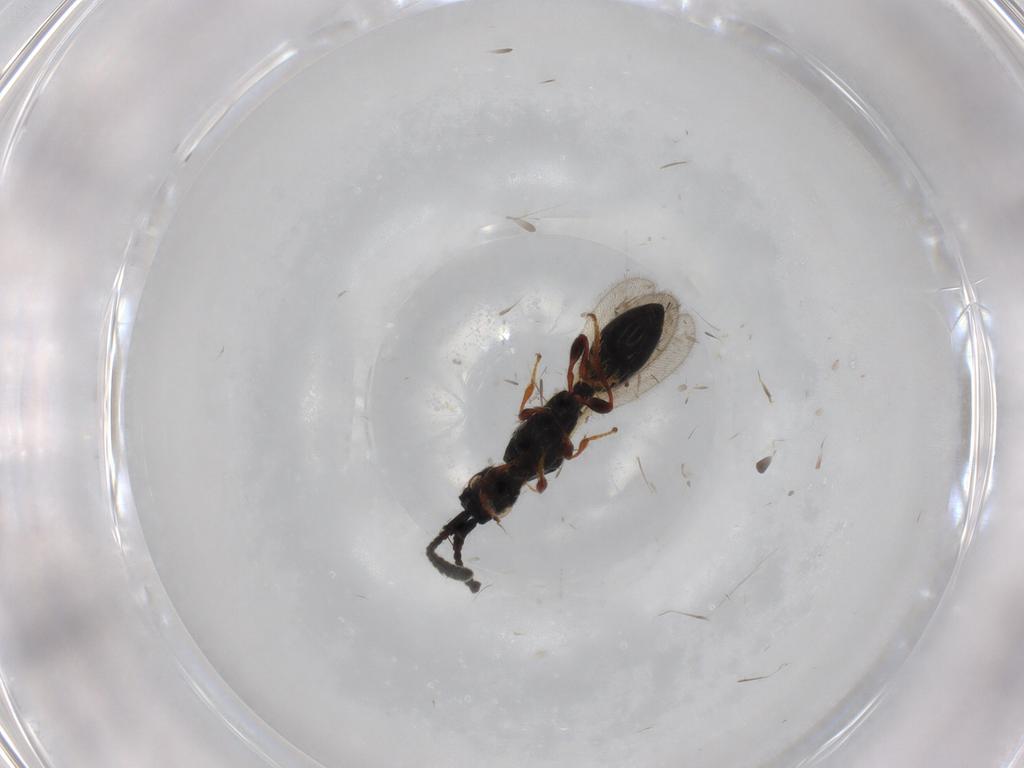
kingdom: Animalia
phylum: Arthropoda
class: Insecta
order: Hymenoptera
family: Diapriidae
